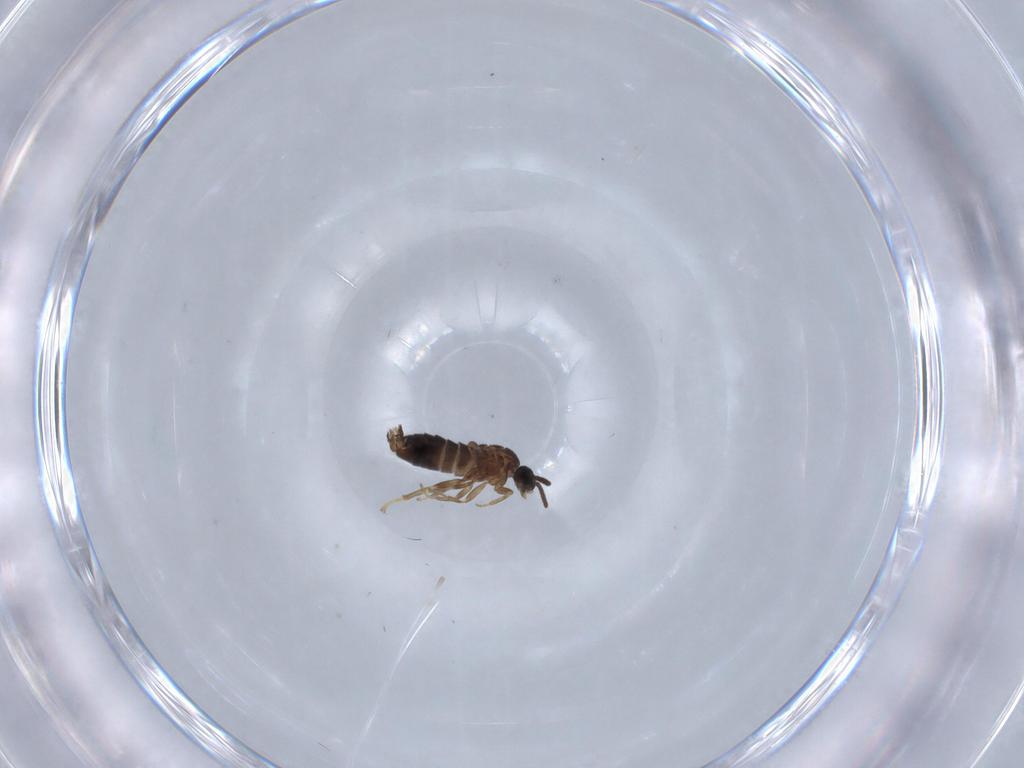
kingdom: Animalia
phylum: Arthropoda
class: Insecta
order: Diptera
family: Scatopsidae
